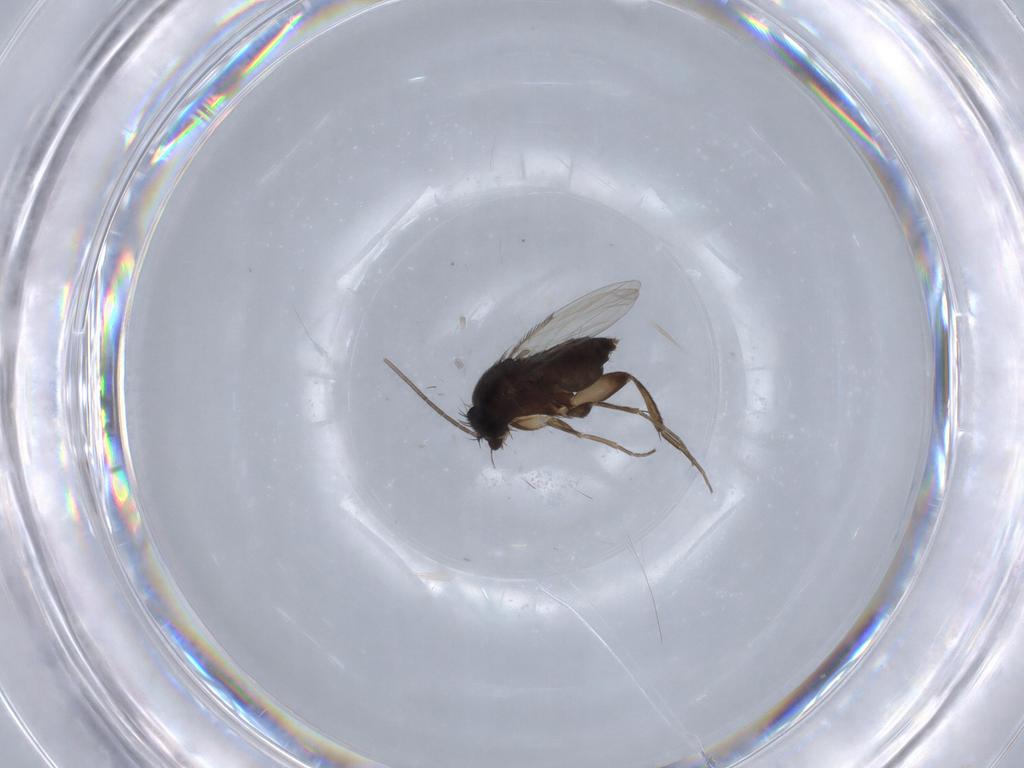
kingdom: Animalia
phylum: Arthropoda
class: Insecta
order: Diptera
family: Phoridae
